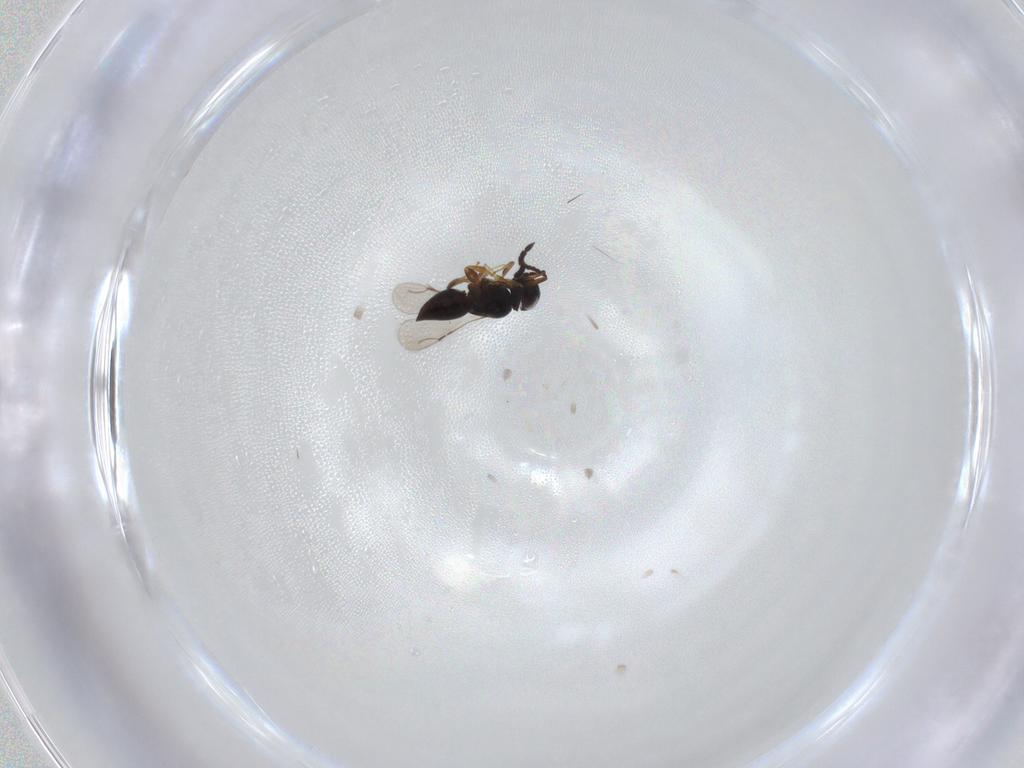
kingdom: Animalia
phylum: Arthropoda
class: Insecta
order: Hymenoptera
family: Ceraphronidae
